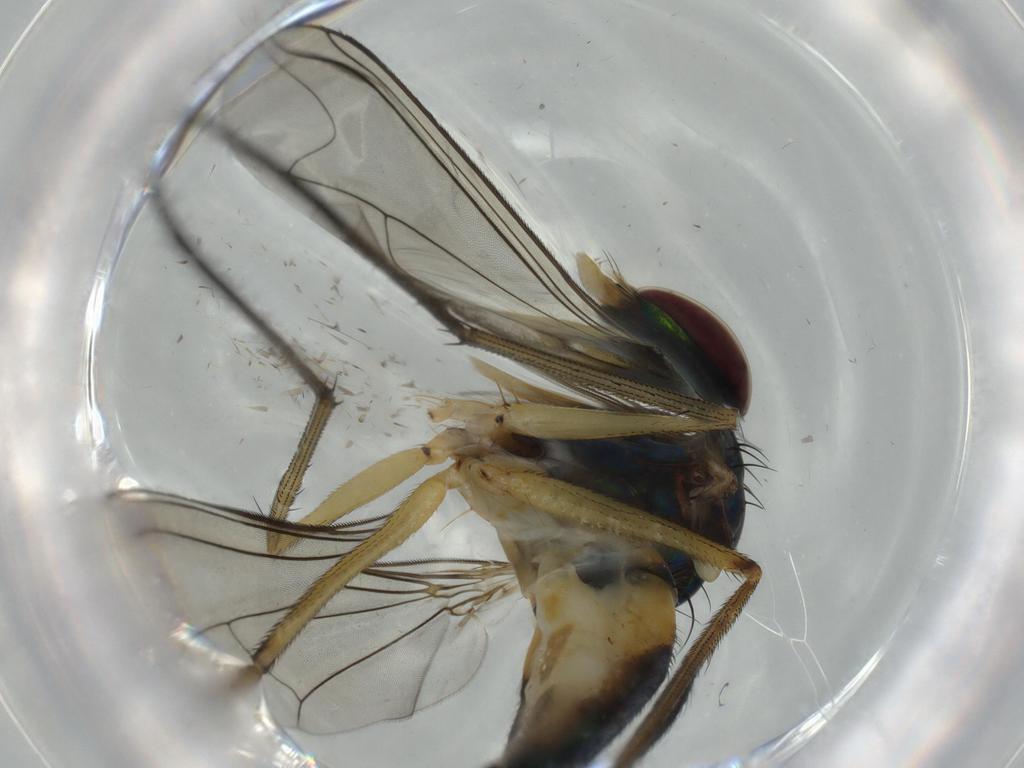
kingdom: Animalia
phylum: Arthropoda
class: Insecta
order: Diptera
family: Dolichopodidae
